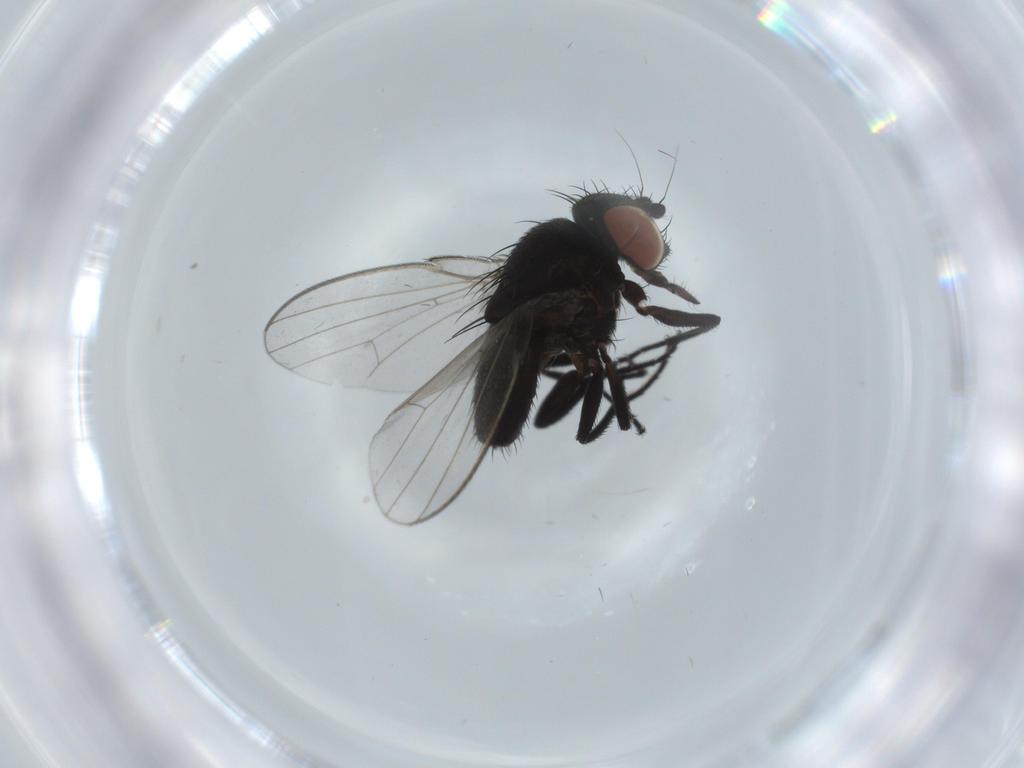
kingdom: Animalia
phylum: Arthropoda
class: Insecta
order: Diptera
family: Milichiidae
